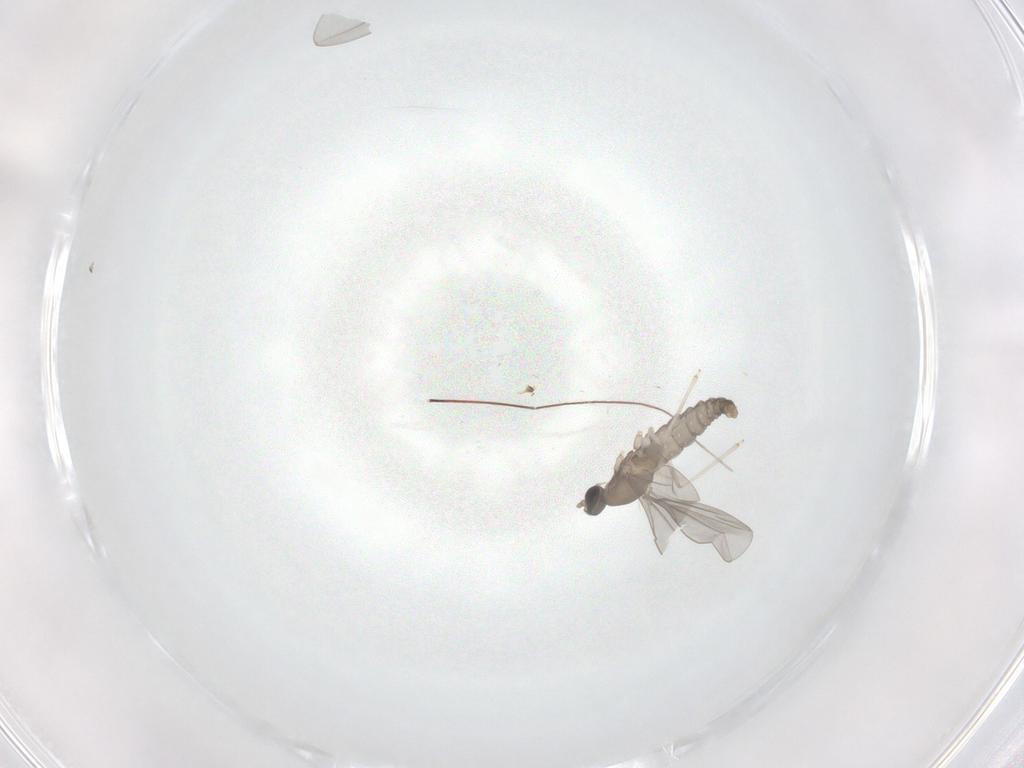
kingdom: Animalia
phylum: Arthropoda
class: Insecta
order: Diptera
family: Cecidomyiidae
